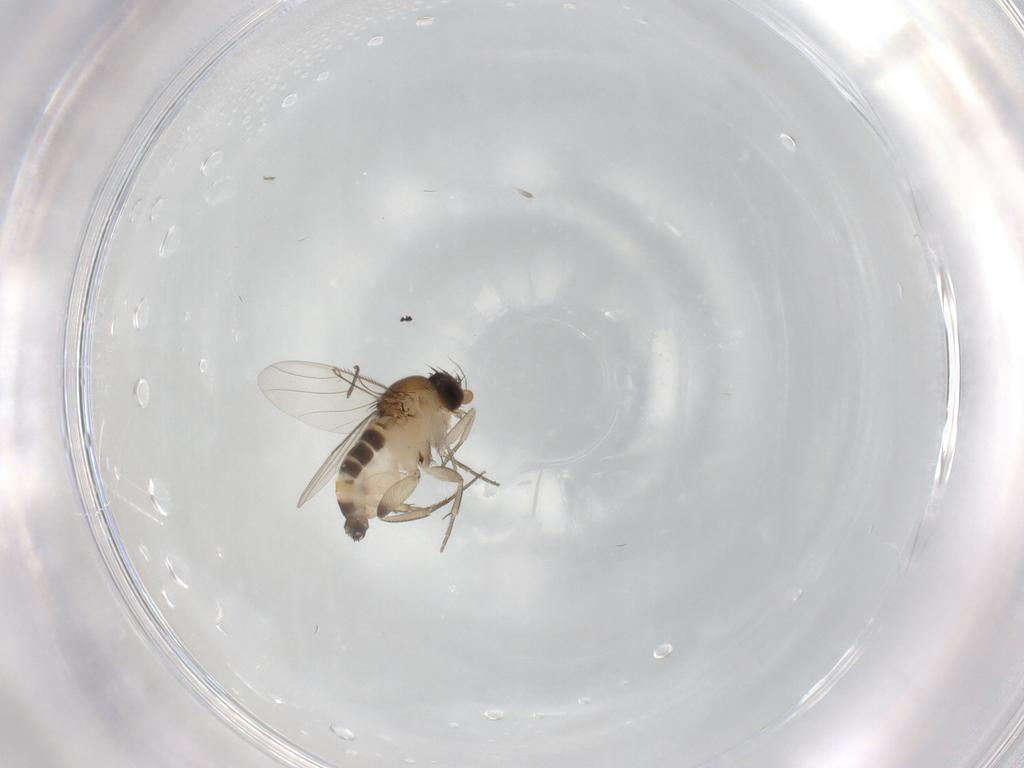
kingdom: Animalia
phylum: Arthropoda
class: Insecta
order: Diptera
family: Phoridae
